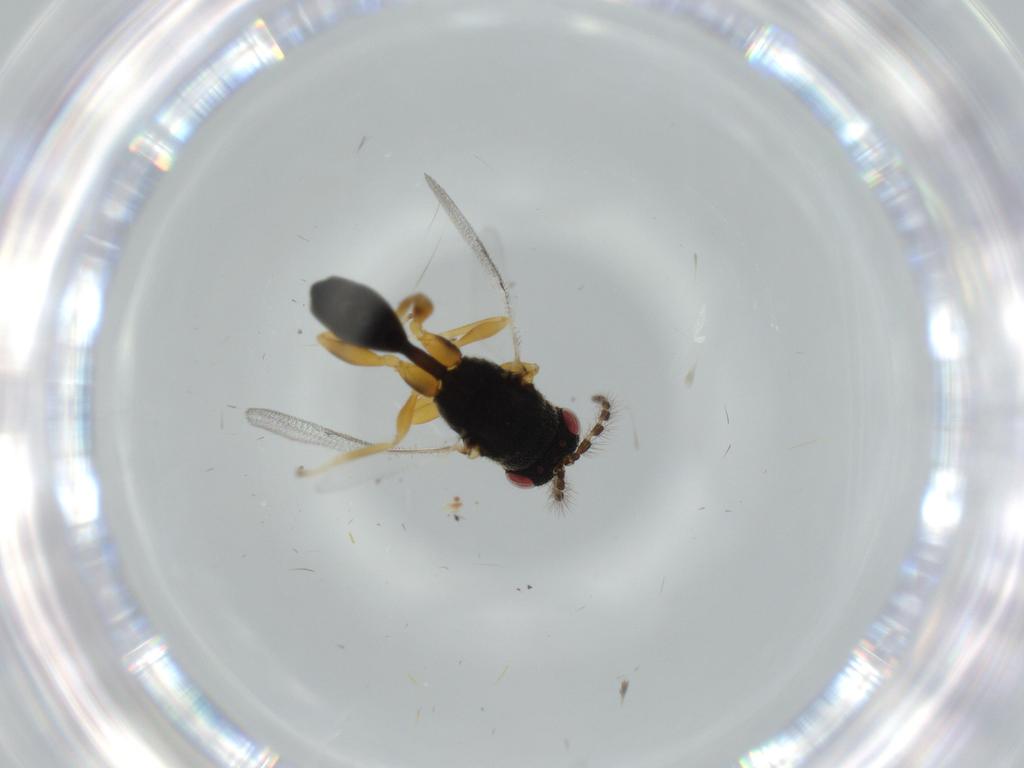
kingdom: Animalia
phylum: Arthropoda
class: Insecta
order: Hymenoptera
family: Eurytomidae
